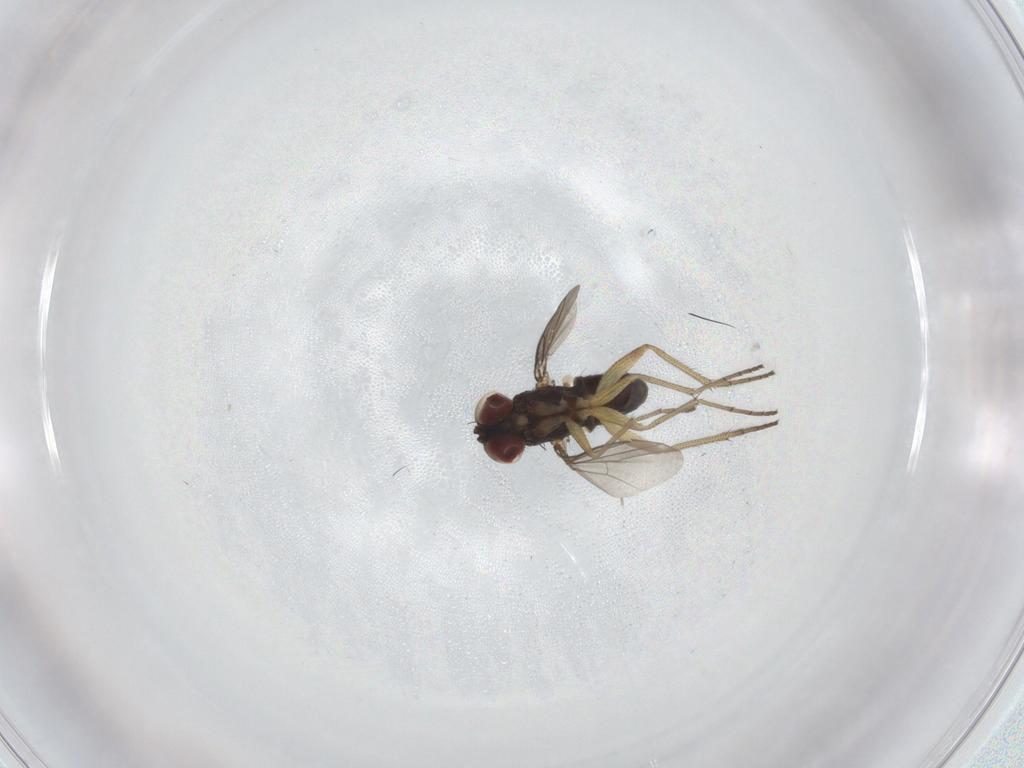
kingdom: Animalia
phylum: Arthropoda
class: Insecta
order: Diptera
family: Dolichopodidae
